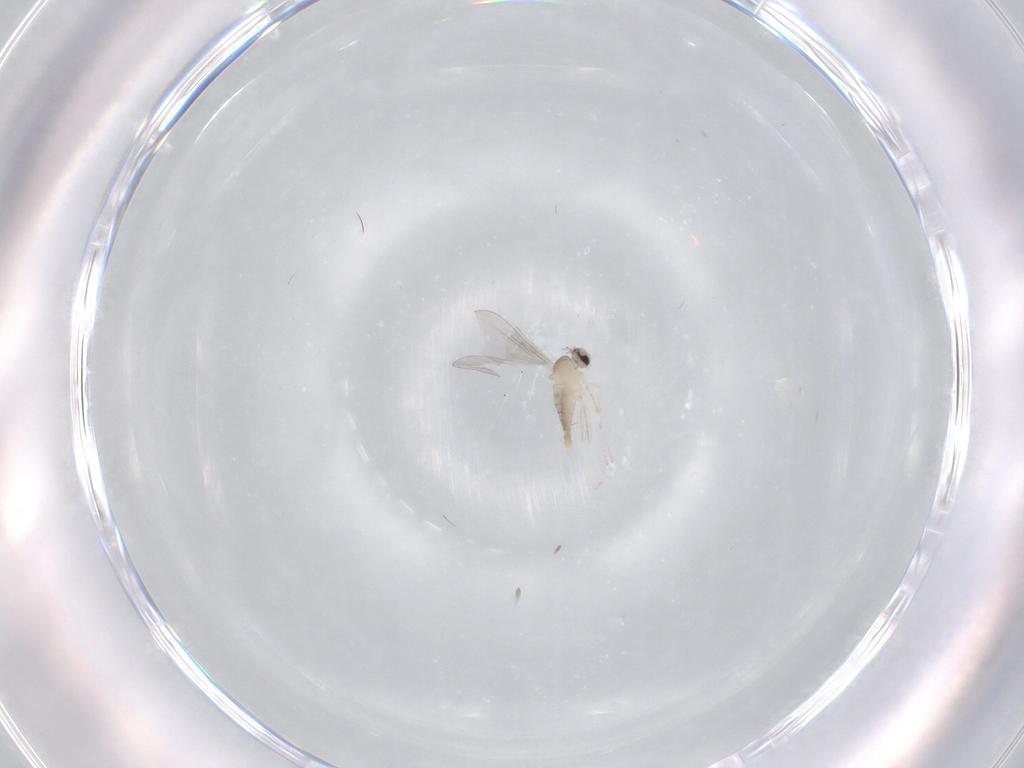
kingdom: Animalia
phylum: Arthropoda
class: Insecta
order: Diptera
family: Cecidomyiidae
